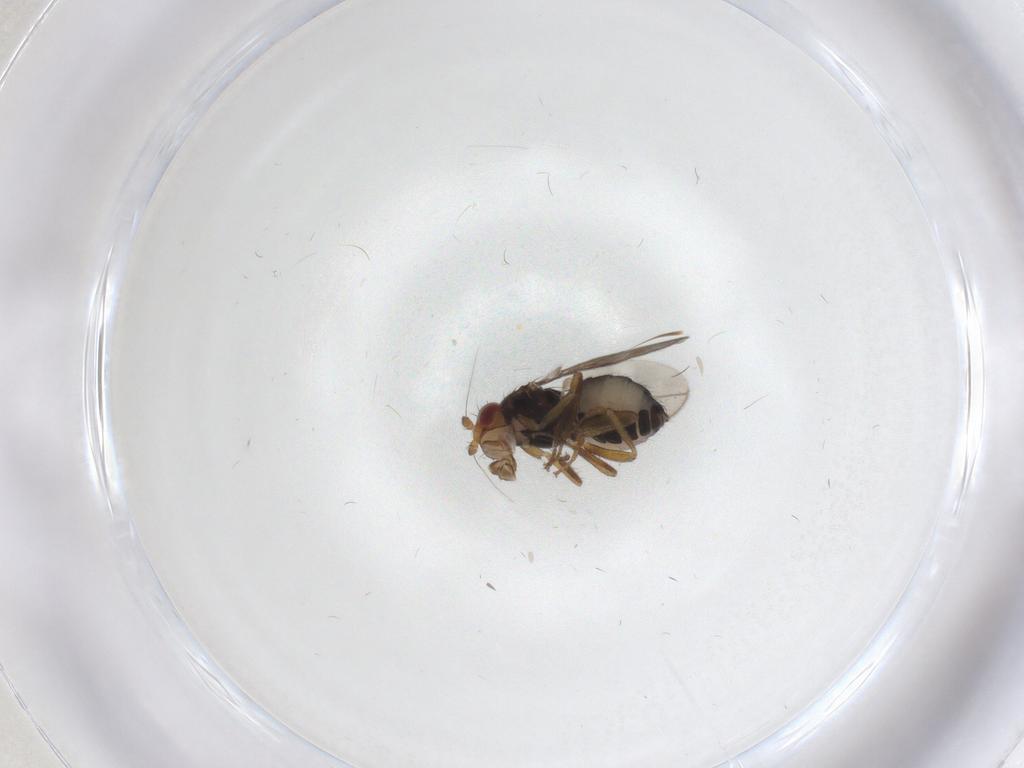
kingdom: Animalia
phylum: Arthropoda
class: Insecta
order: Diptera
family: Sphaeroceridae
